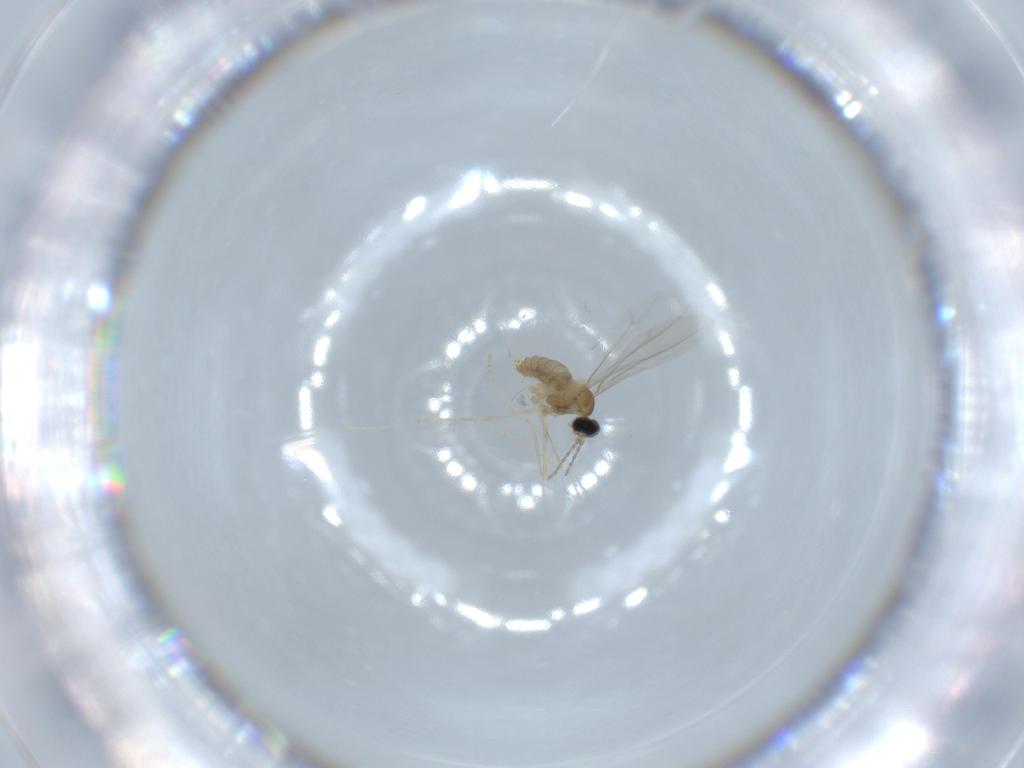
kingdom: Animalia
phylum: Arthropoda
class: Insecta
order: Diptera
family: Cecidomyiidae
